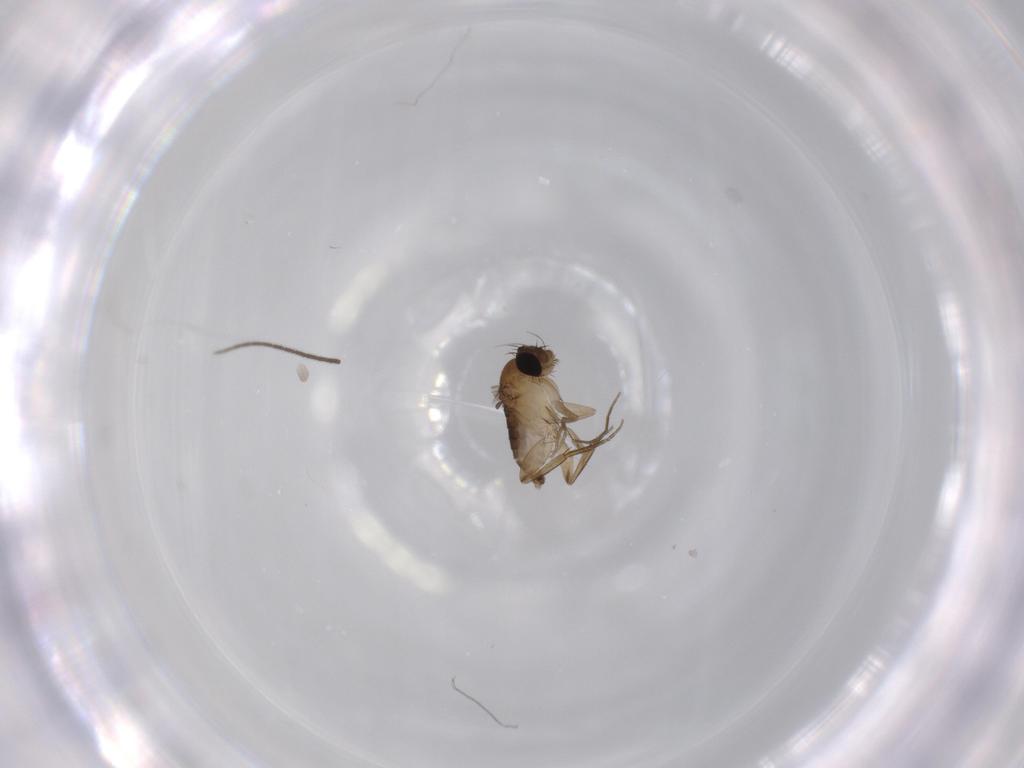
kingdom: Animalia
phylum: Arthropoda
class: Insecta
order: Diptera
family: Phoridae
